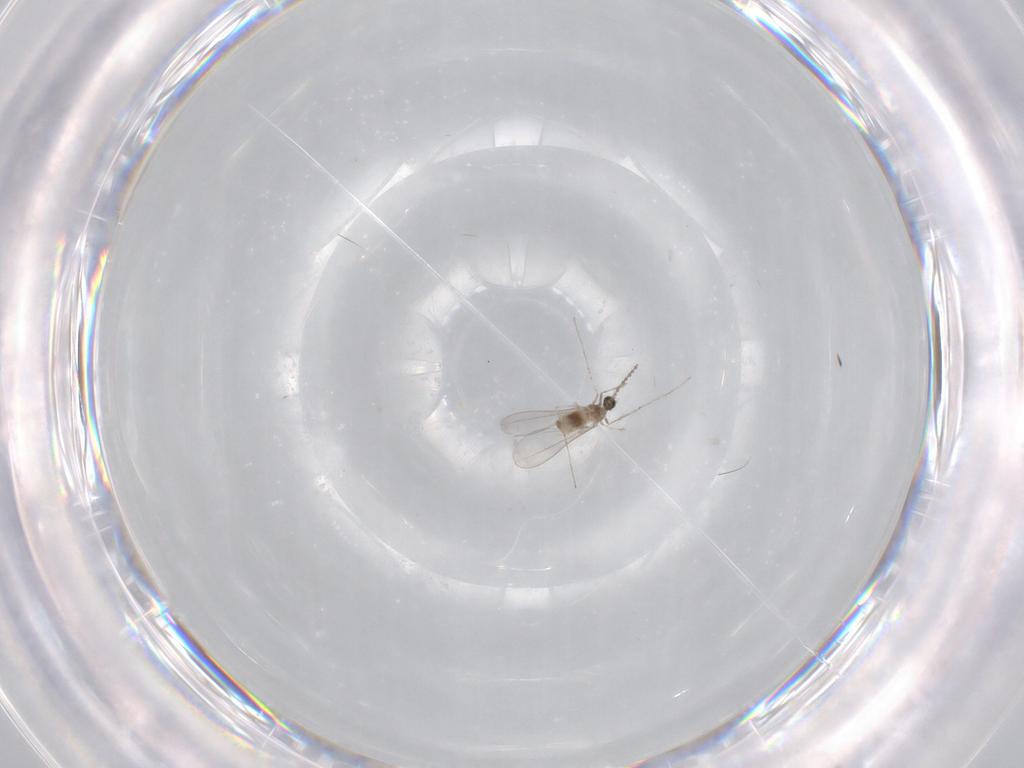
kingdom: Animalia
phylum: Arthropoda
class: Insecta
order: Diptera
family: Cecidomyiidae
